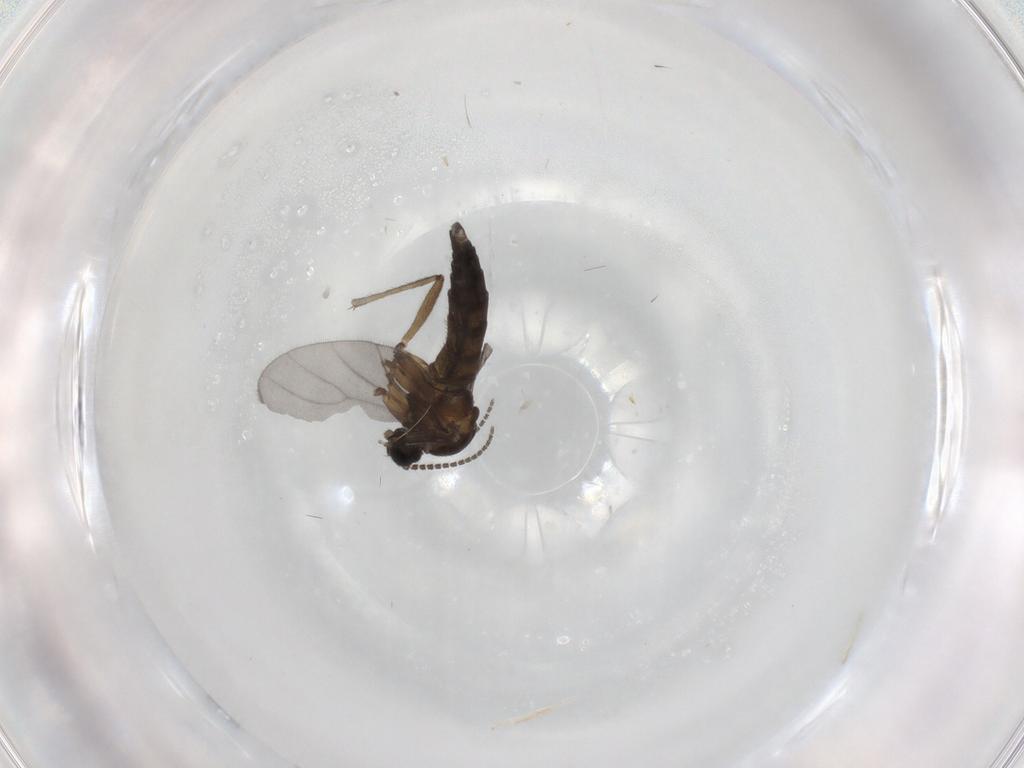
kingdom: Animalia
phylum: Arthropoda
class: Insecta
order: Diptera
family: Sciaridae
